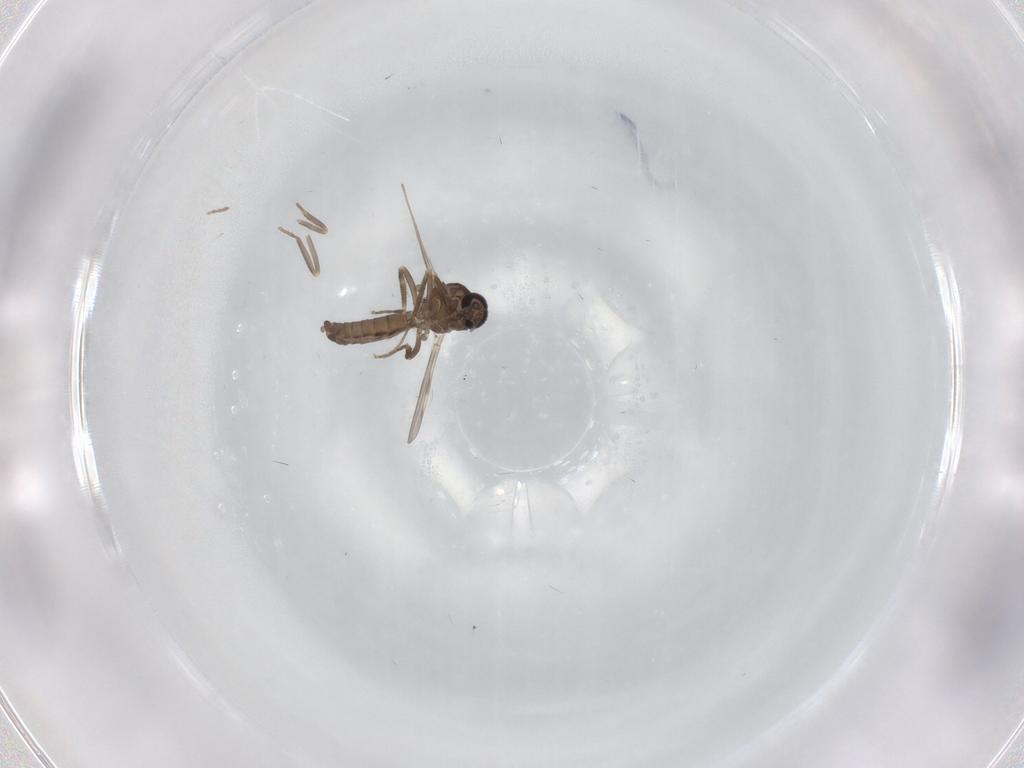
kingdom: Animalia
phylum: Arthropoda
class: Insecta
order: Diptera
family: Ceratopogonidae
